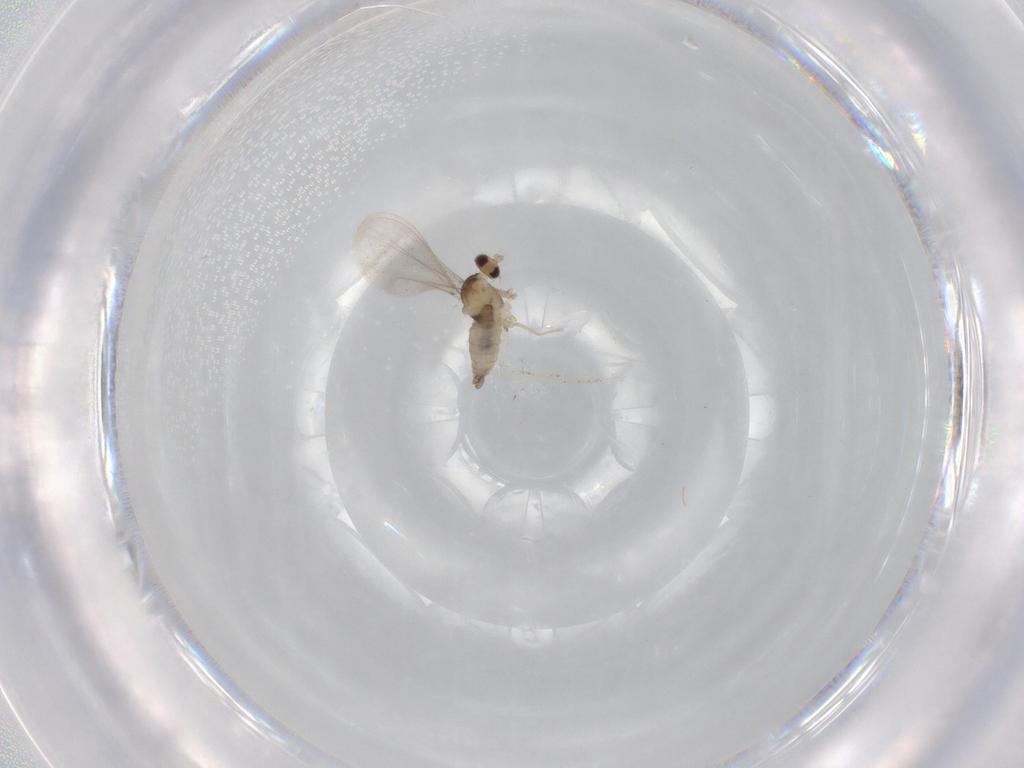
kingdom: Animalia
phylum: Arthropoda
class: Insecta
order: Diptera
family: Cecidomyiidae
